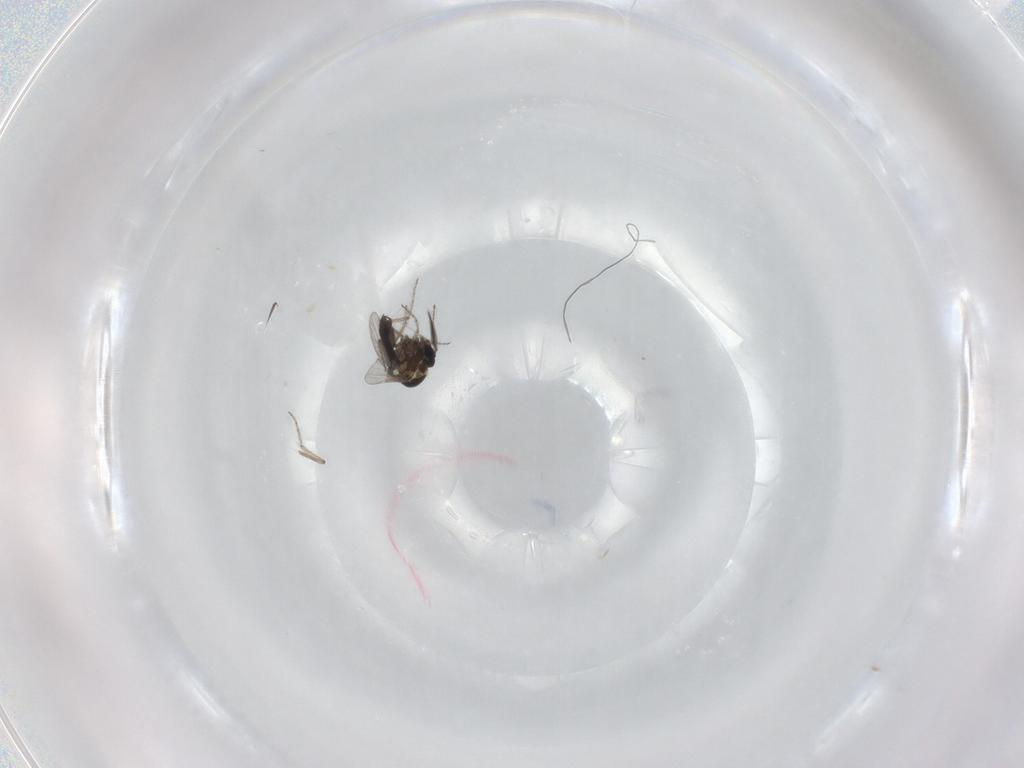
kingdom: Animalia
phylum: Arthropoda
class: Insecta
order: Diptera
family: Ceratopogonidae
